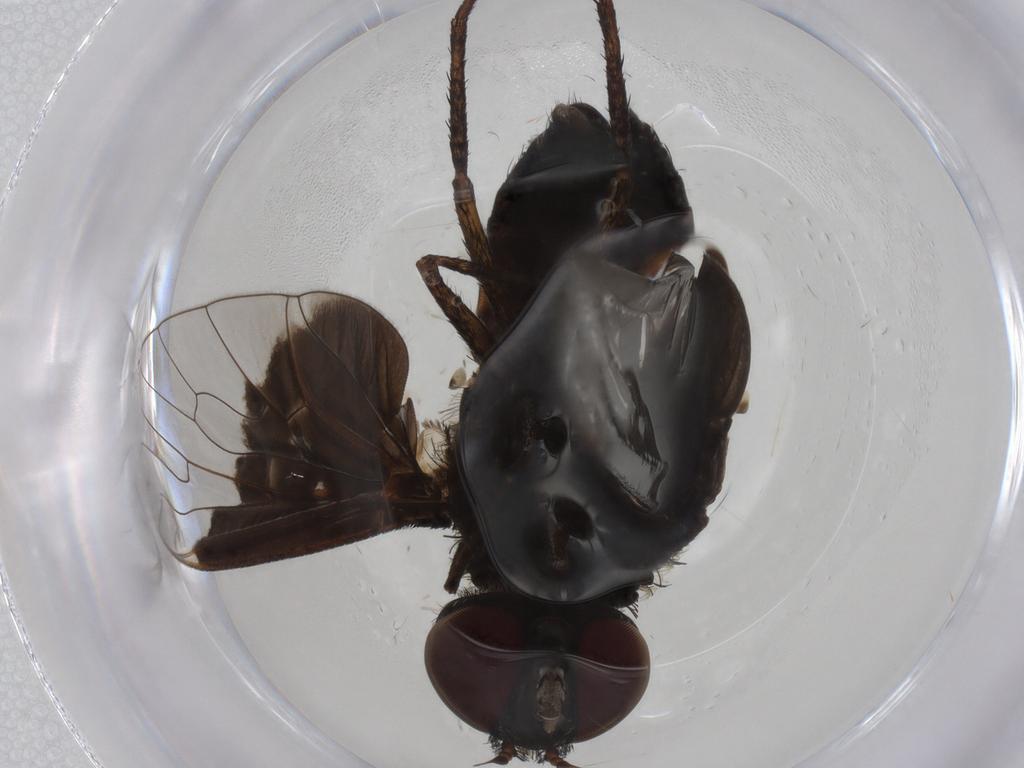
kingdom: Animalia
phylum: Arthropoda
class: Insecta
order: Diptera
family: Bombyliidae
